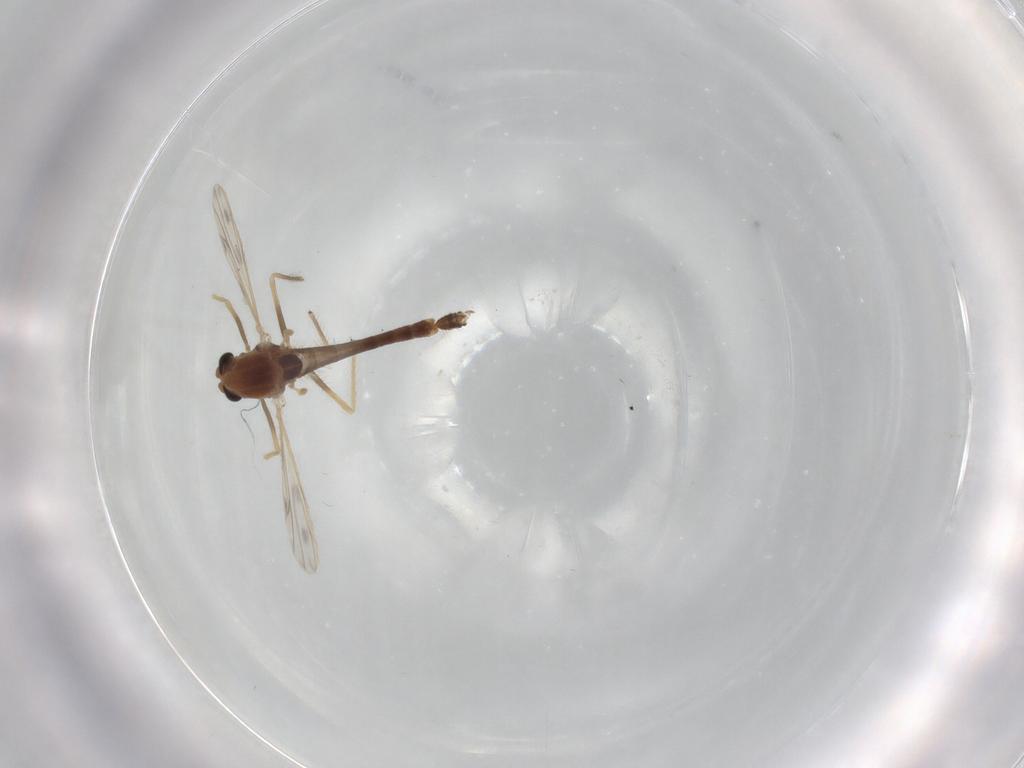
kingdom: Animalia
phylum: Arthropoda
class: Insecta
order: Diptera
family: Chironomidae
